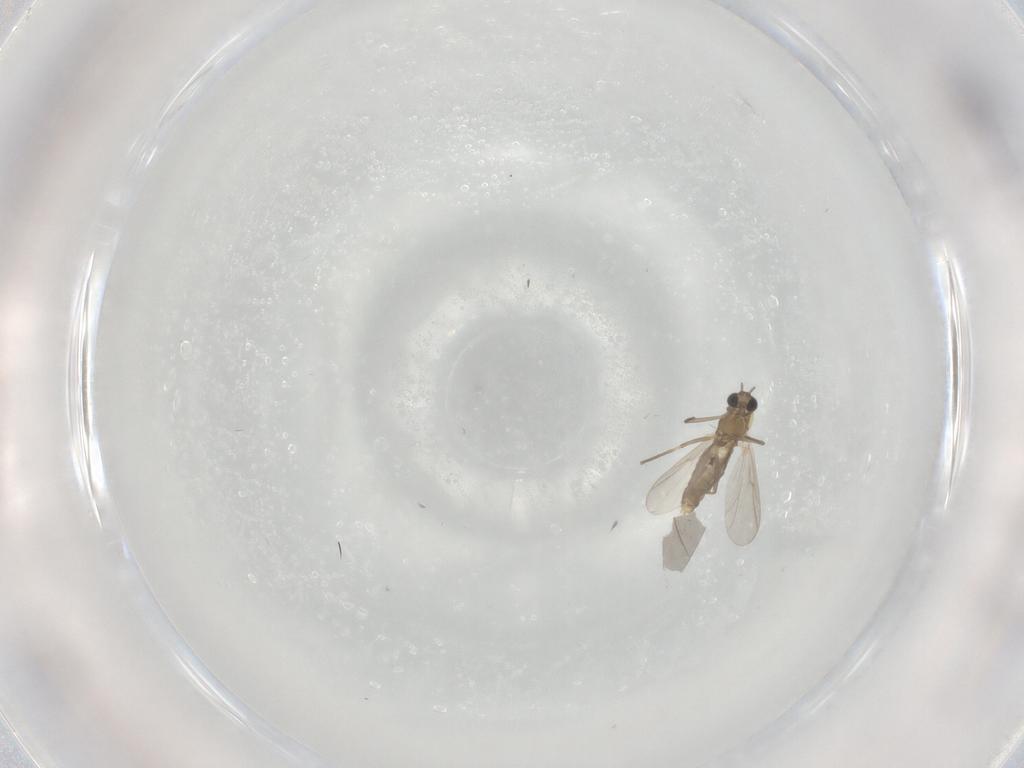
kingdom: Animalia
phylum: Arthropoda
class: Insecta
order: Diptera
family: Chironomidae
